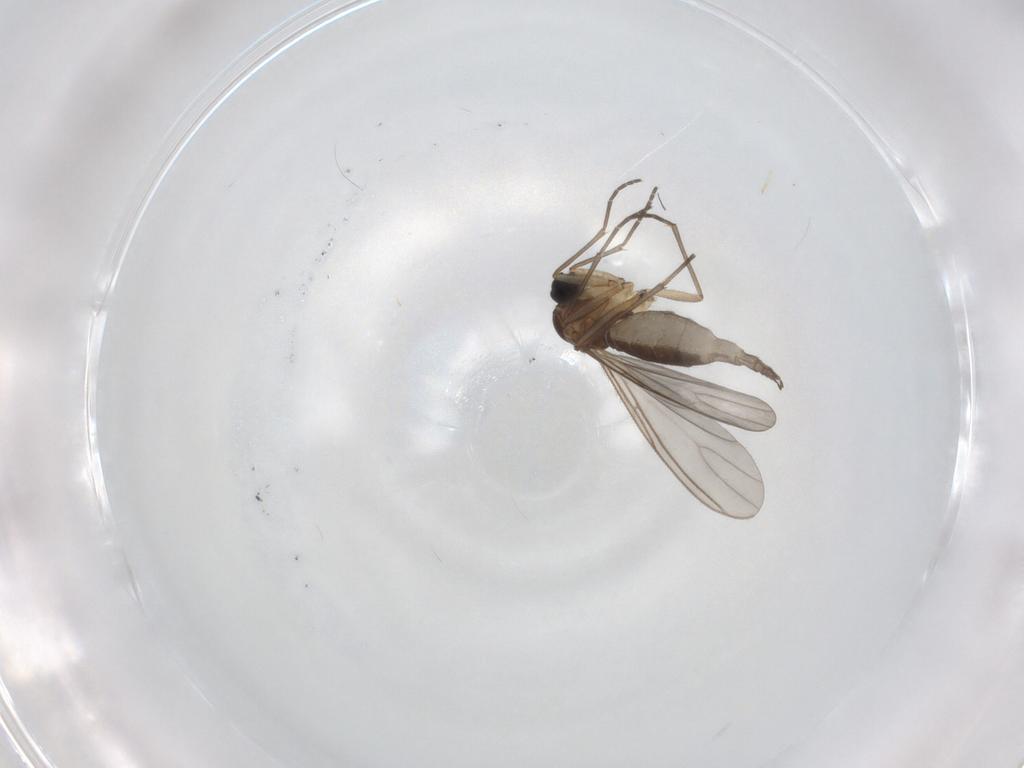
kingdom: Animalia
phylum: Arthropoda
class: Insecta
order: Diptera
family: Sciaridae
